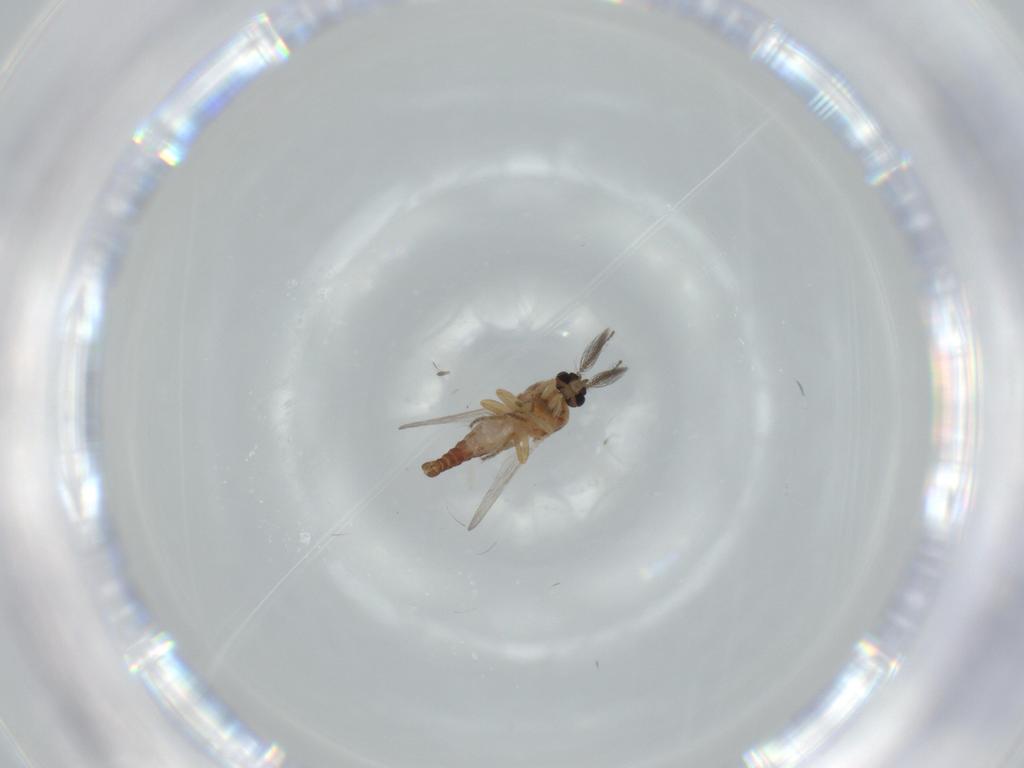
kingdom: Animalia
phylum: Arthropoda
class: Insecta
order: Diptera
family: Ceratopogonidae
